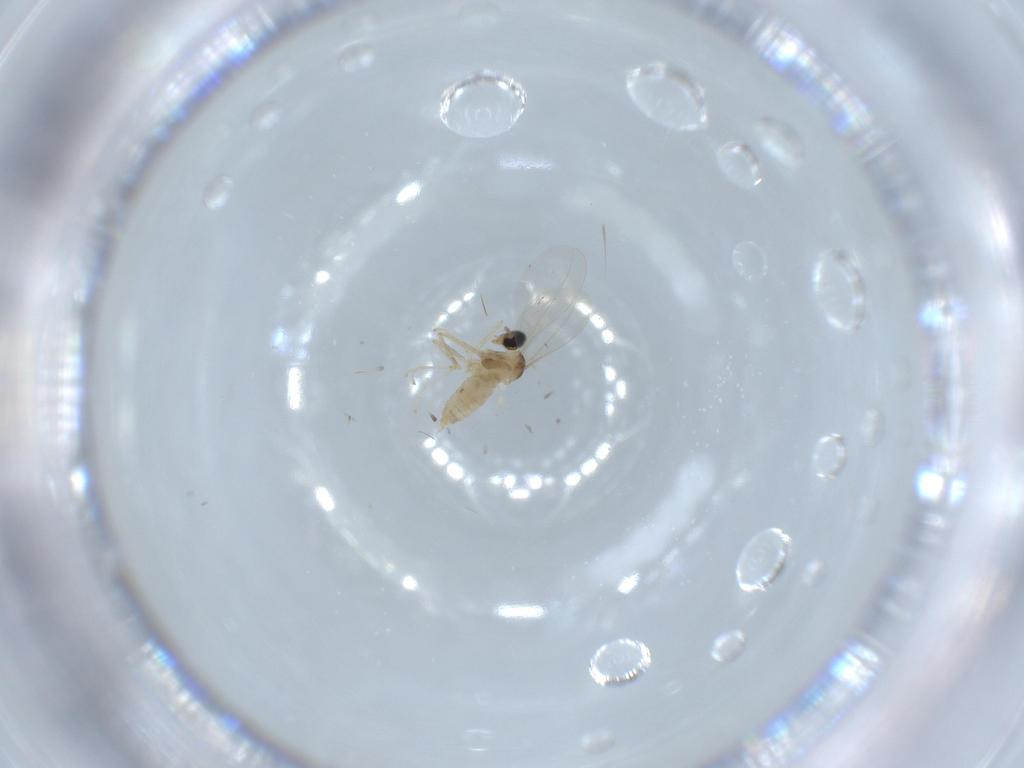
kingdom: Animalia
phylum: Arthropoda
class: Insecta
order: Diptera
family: Cecidomyiidae
